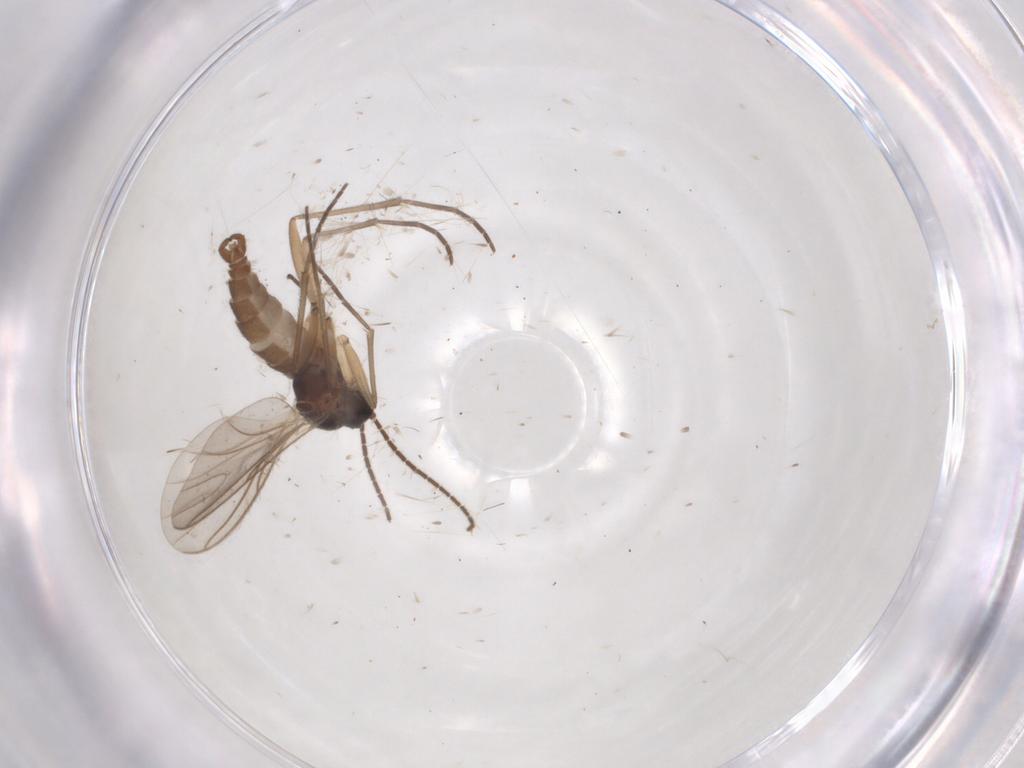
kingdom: Animalia
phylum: Arthropoda
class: Insecta
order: Diptera
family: Sciaridae
